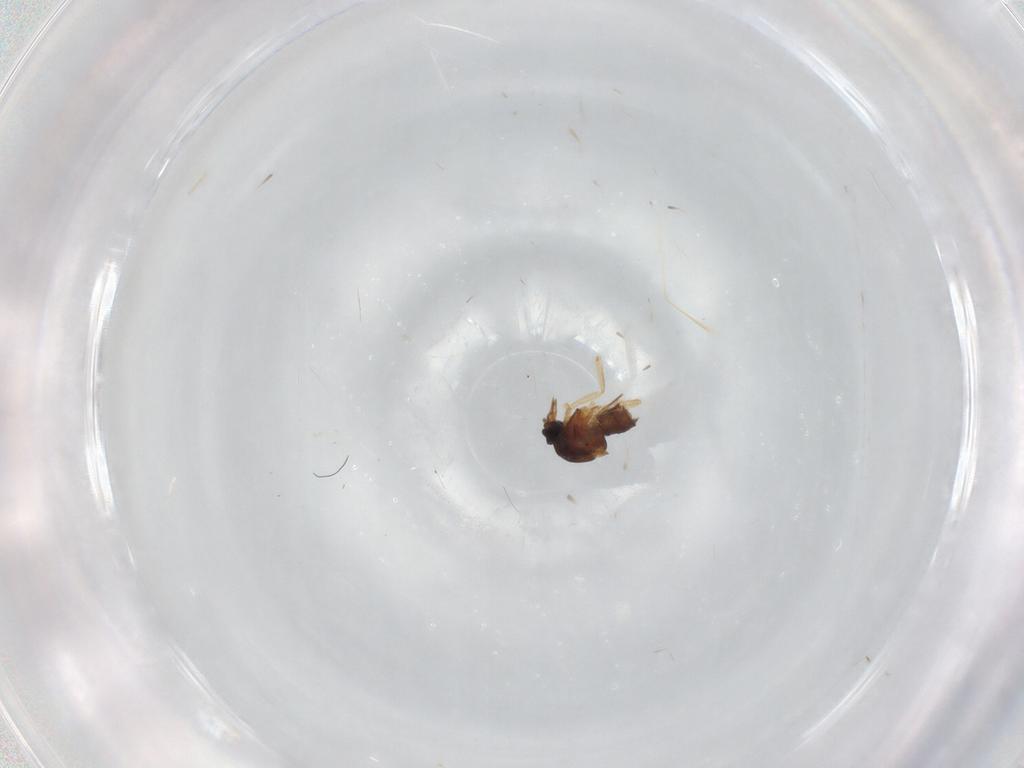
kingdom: Animalia
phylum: Arthropoda
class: Insecta
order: Diptera
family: Ceratopogonidae
